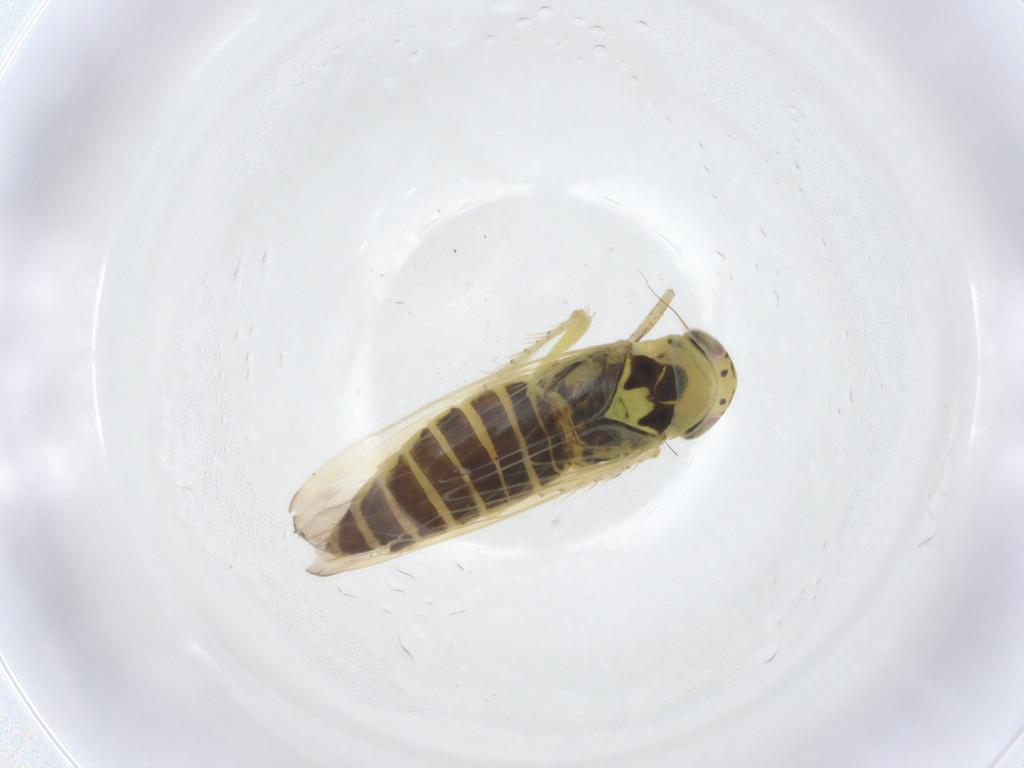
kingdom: Animalia
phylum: Arthropoda
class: Insecta
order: Hemiptera
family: Cicadellidae
